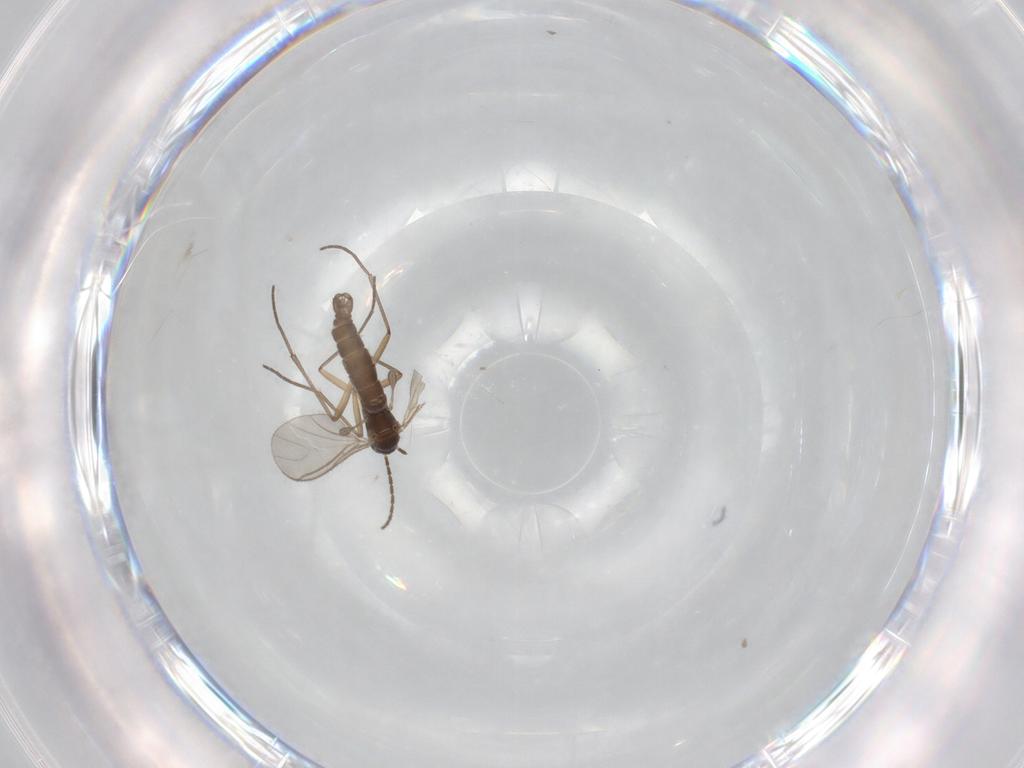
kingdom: Animalia
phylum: Arthropoda
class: Insecta
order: Diptera
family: Sciaridae
